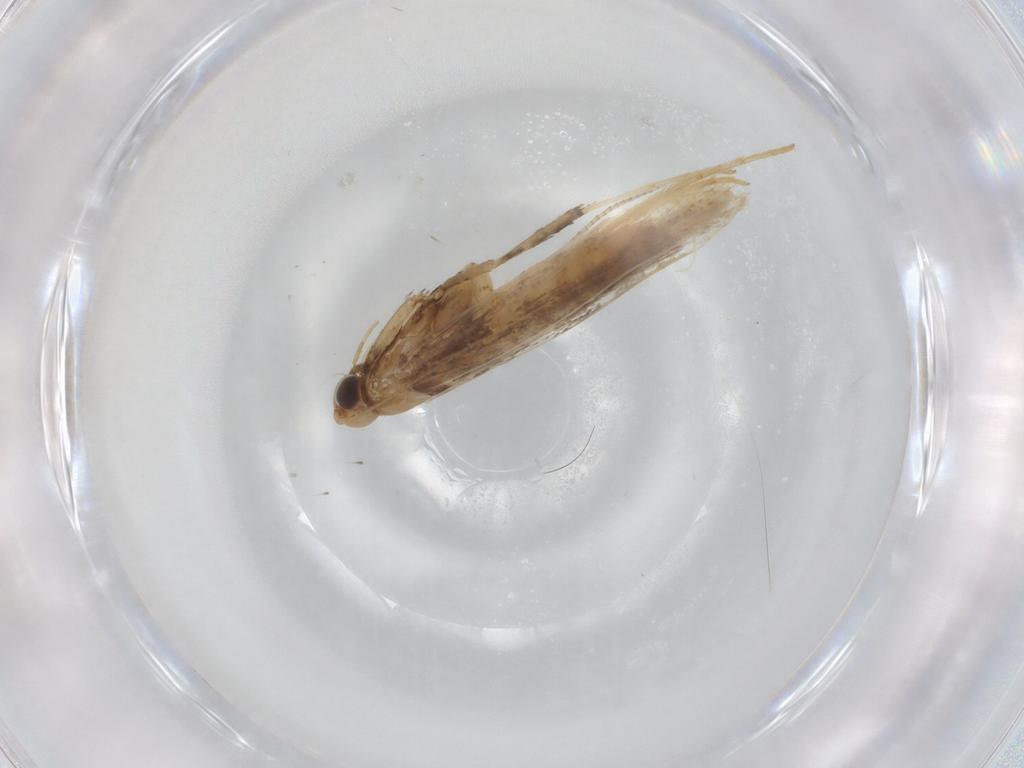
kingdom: Animalia
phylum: Arthropoda
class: Insecta
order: Lepidoptera
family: Gracillariidae
